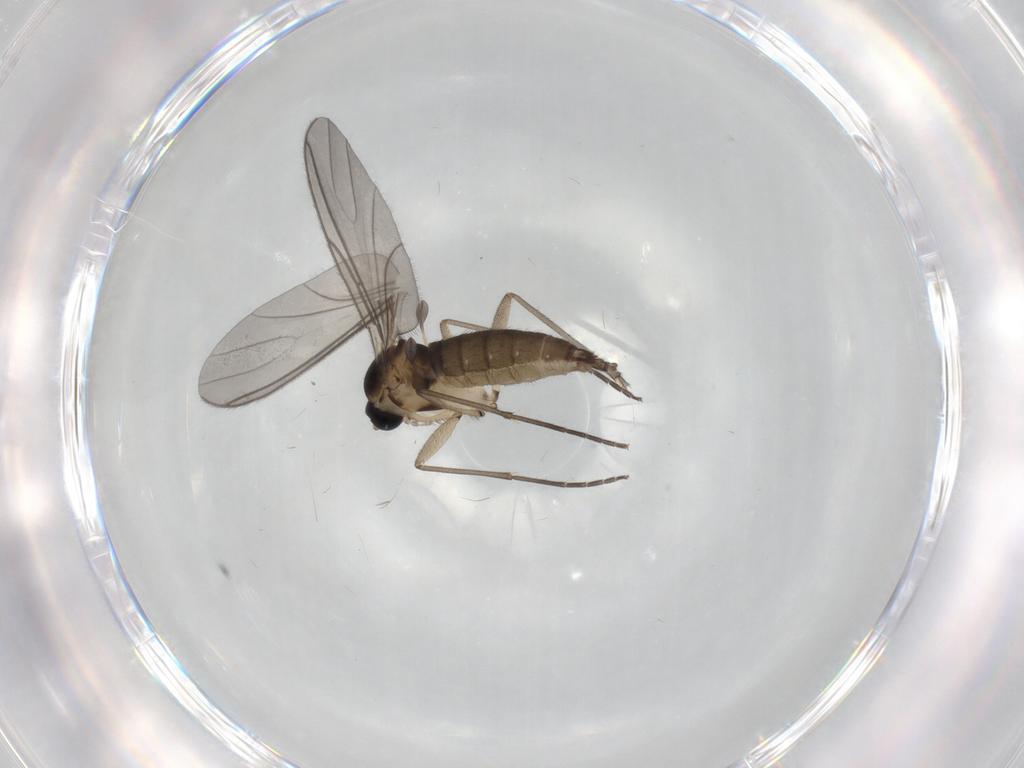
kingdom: Animalia
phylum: Arthropoda
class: Insecta
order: Diptera
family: Sciaridae
